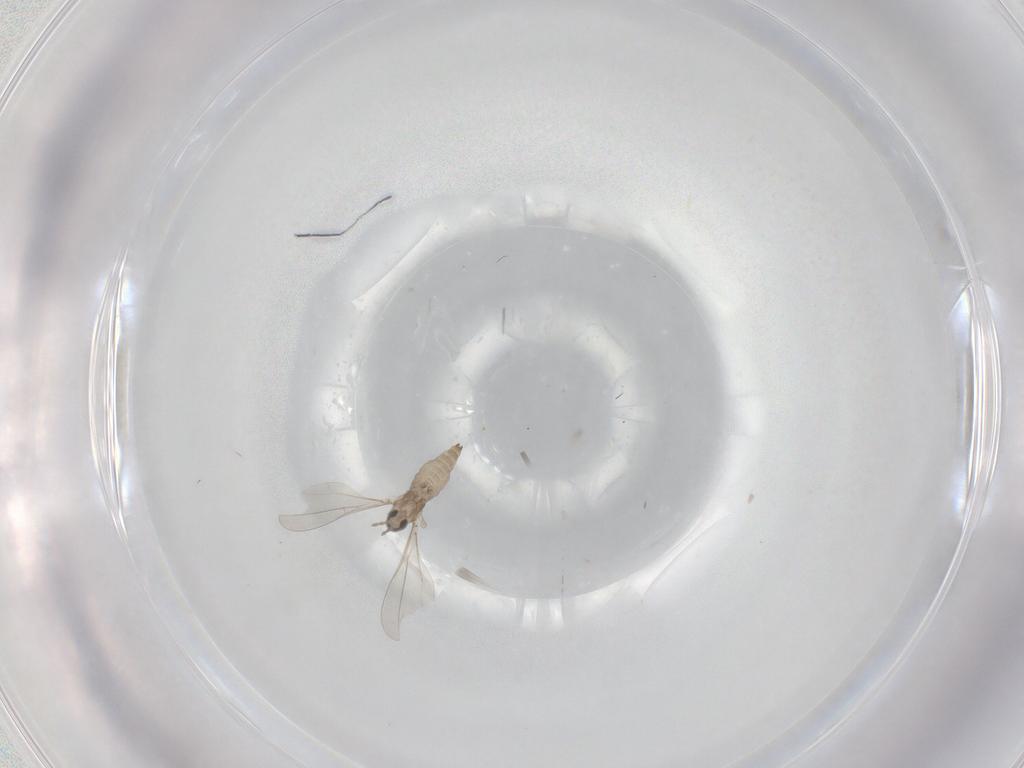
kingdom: Animalia
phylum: Arthropoda
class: Insecta
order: Diptera
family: Cecidomyiidae
